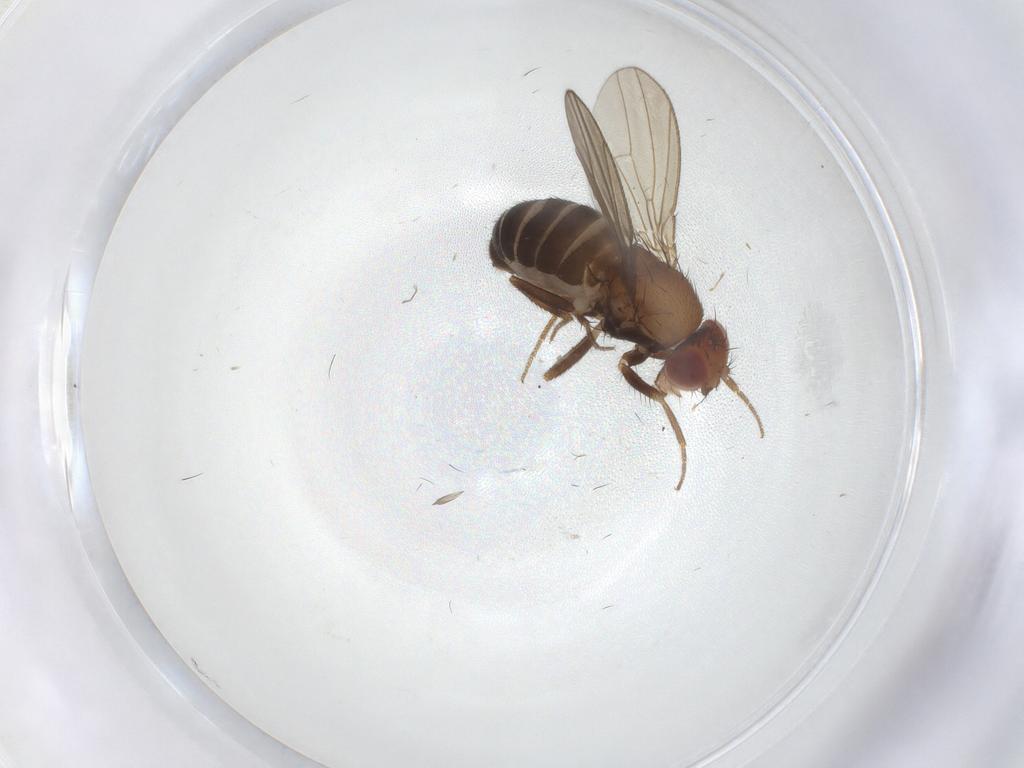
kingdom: Animalia
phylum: Arthropoda
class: Insecta
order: Diptera
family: Drosophilidae
